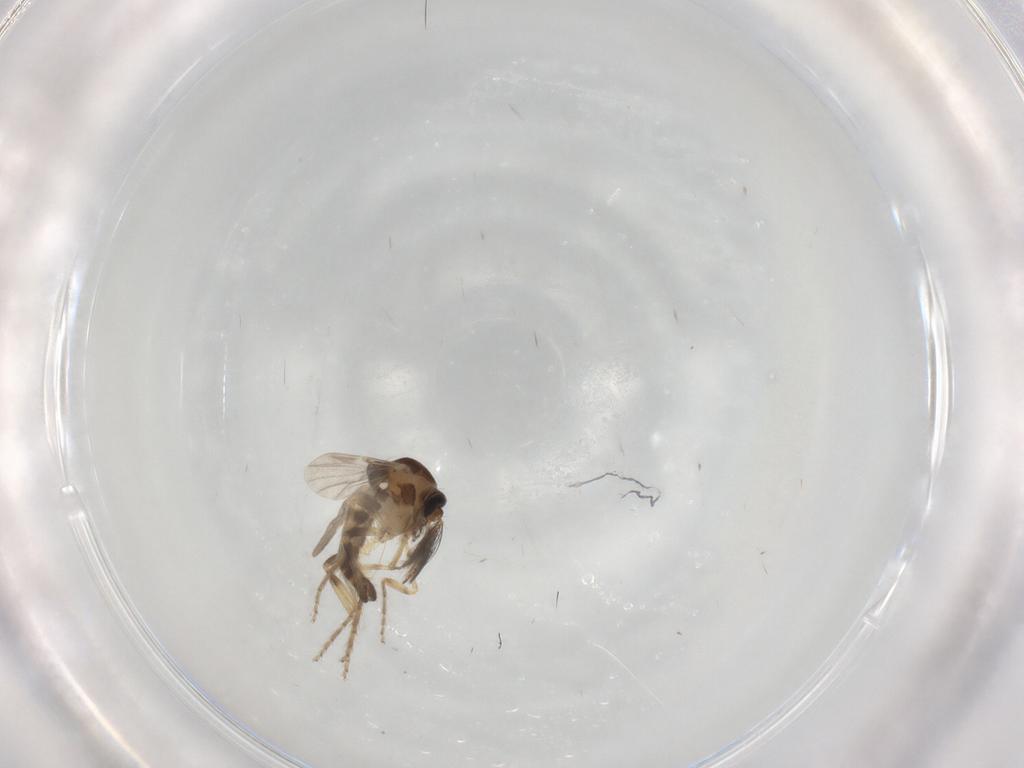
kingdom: Animalia
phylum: Arthropoda
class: Insecta
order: Diptera
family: Ceratopogonidae
